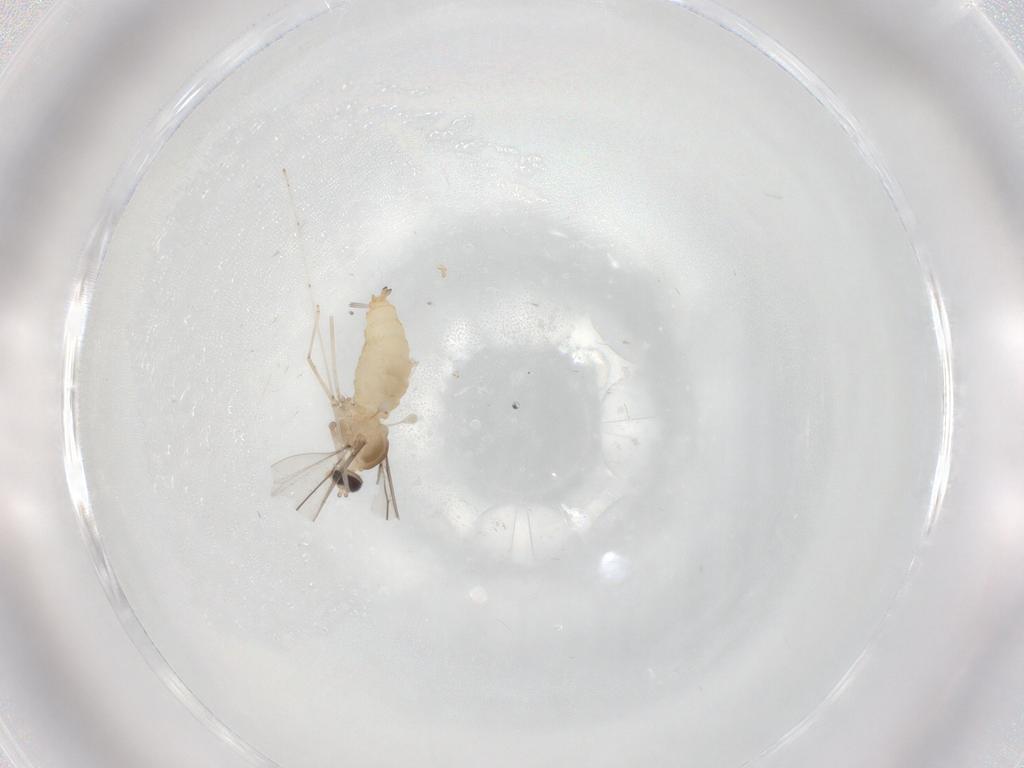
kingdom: Animalia
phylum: Arthropoda
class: Insecta
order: Diptera
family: Cecidomyiidae
